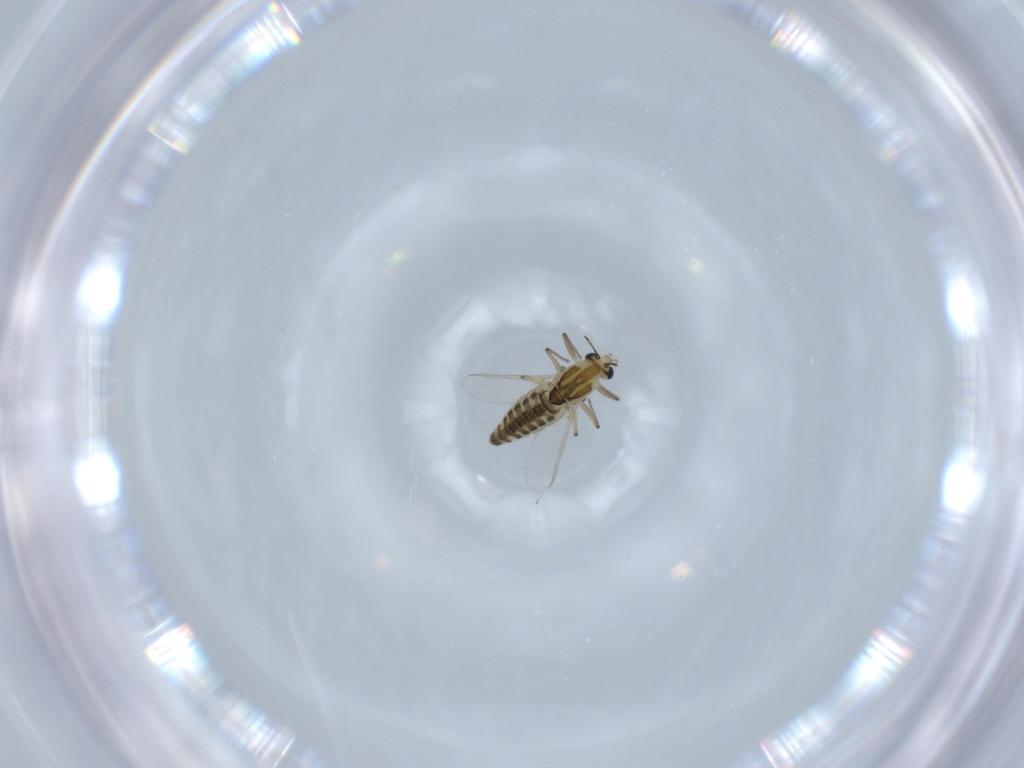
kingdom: Animalia
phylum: Arthropoda
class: Insecta
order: Diptera
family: Chironomidae
